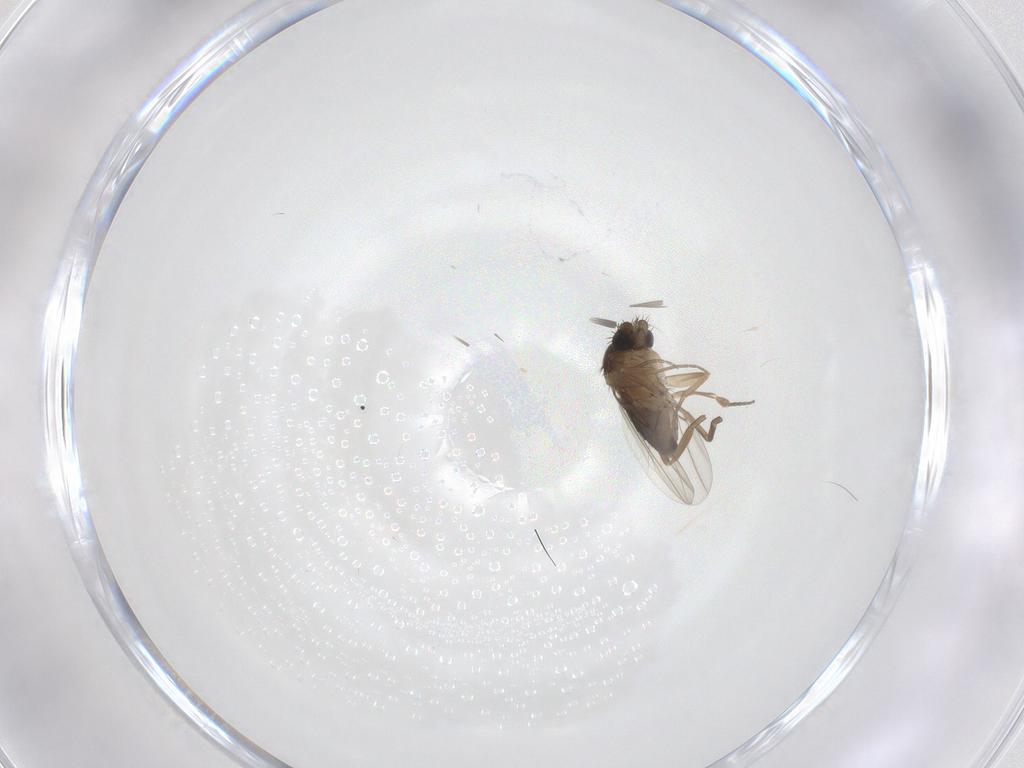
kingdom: Animalia
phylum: Arthropoda
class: Insecta
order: Diptera
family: Phoridae
